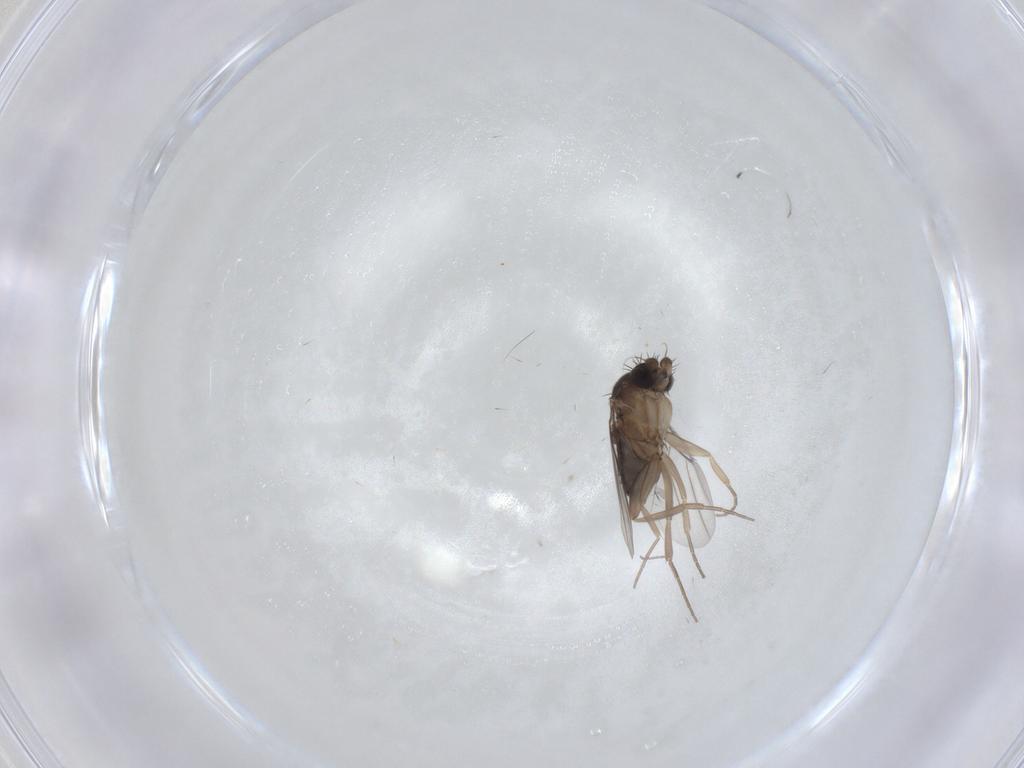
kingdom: Animalia
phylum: Arthropoda
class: Insecta
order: Diptera
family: Phoridae
